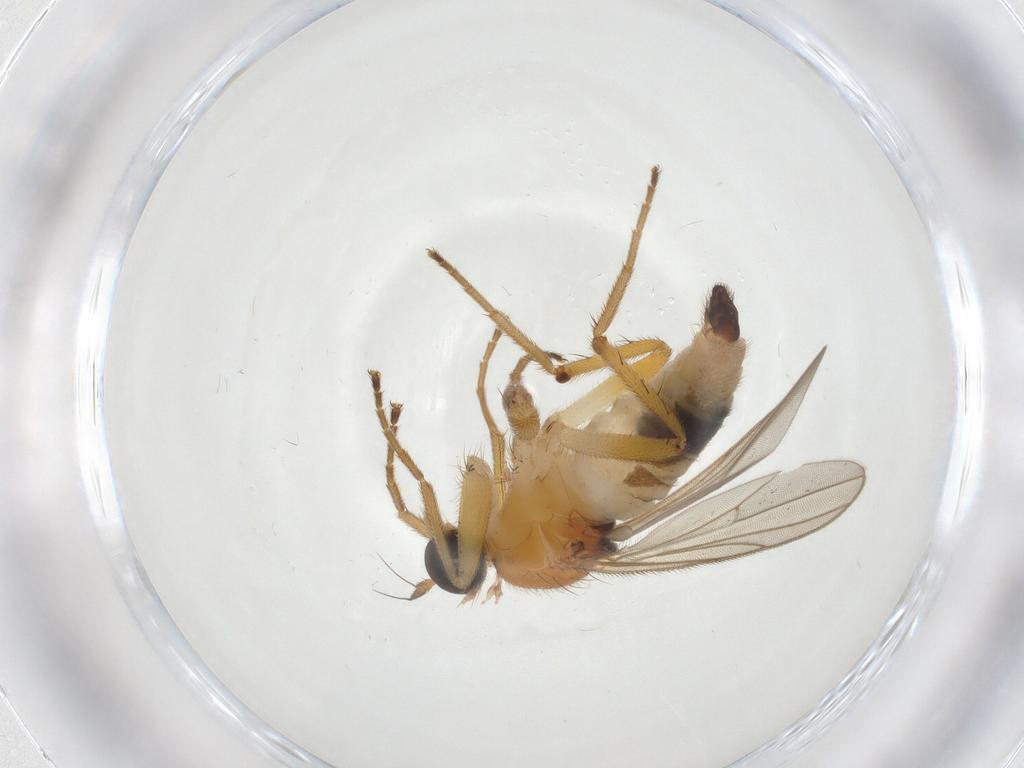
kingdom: Animalia
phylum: Arthropoda
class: Insecta
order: Diptera
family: Hybotidae
